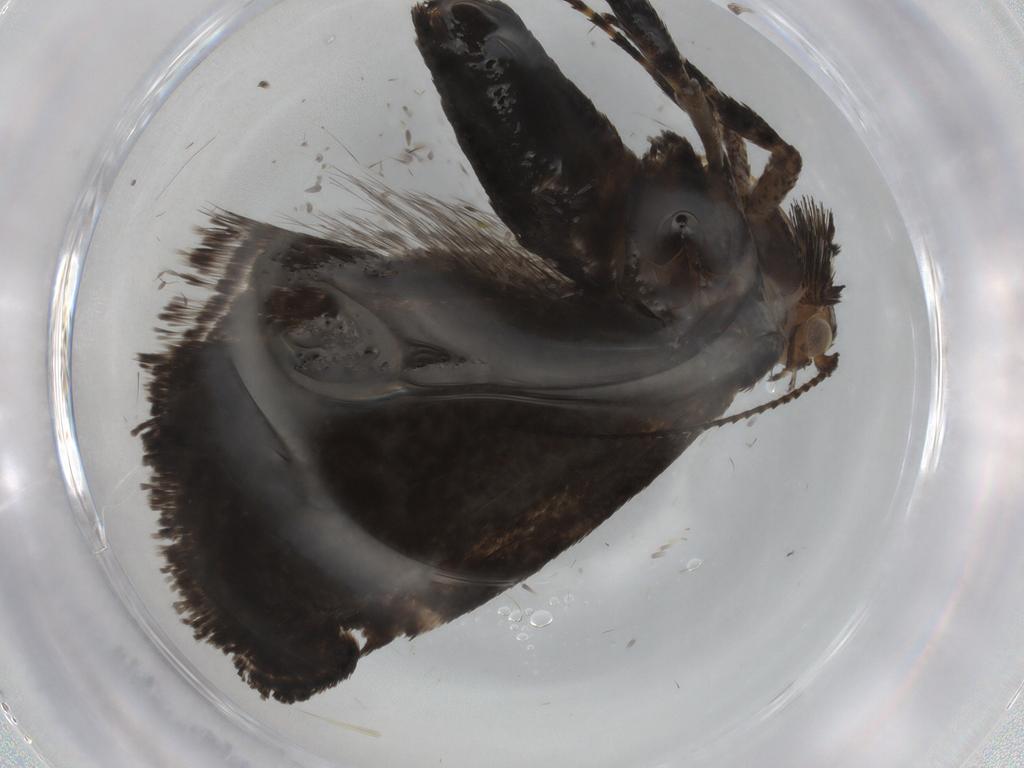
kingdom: Animalia
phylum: Arthropoda
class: Insecta
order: Lepidoptera
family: Choreutidae
